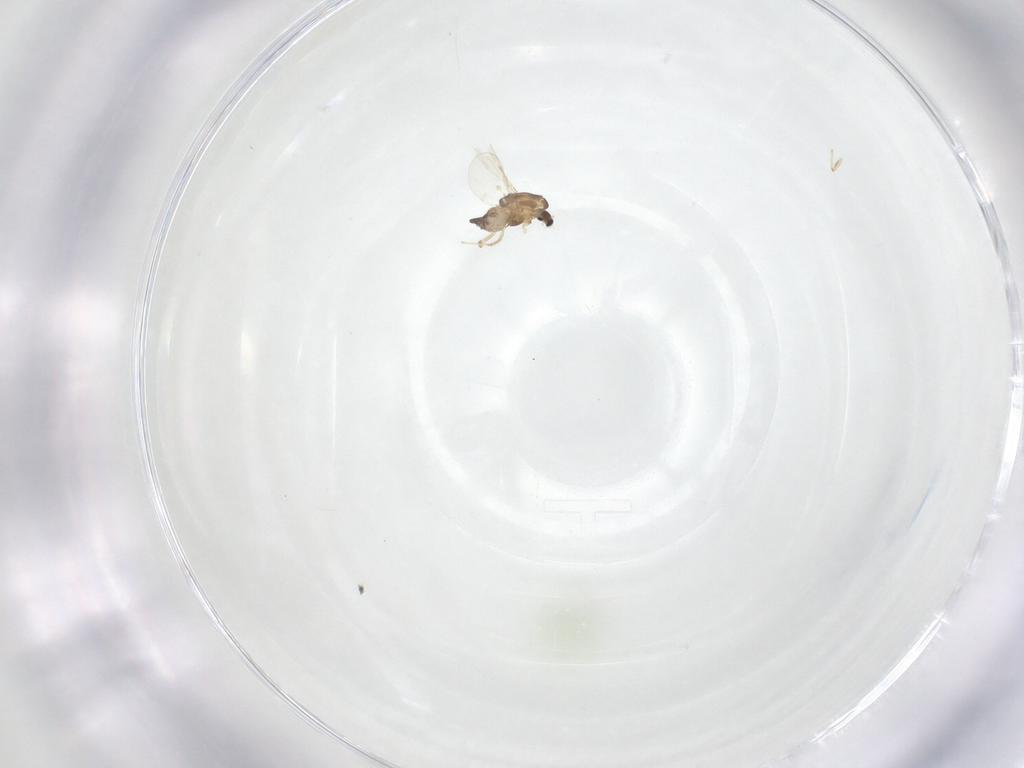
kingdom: Animalia
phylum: Arthropoda
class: Insecta
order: Diptera
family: Chironomidae
